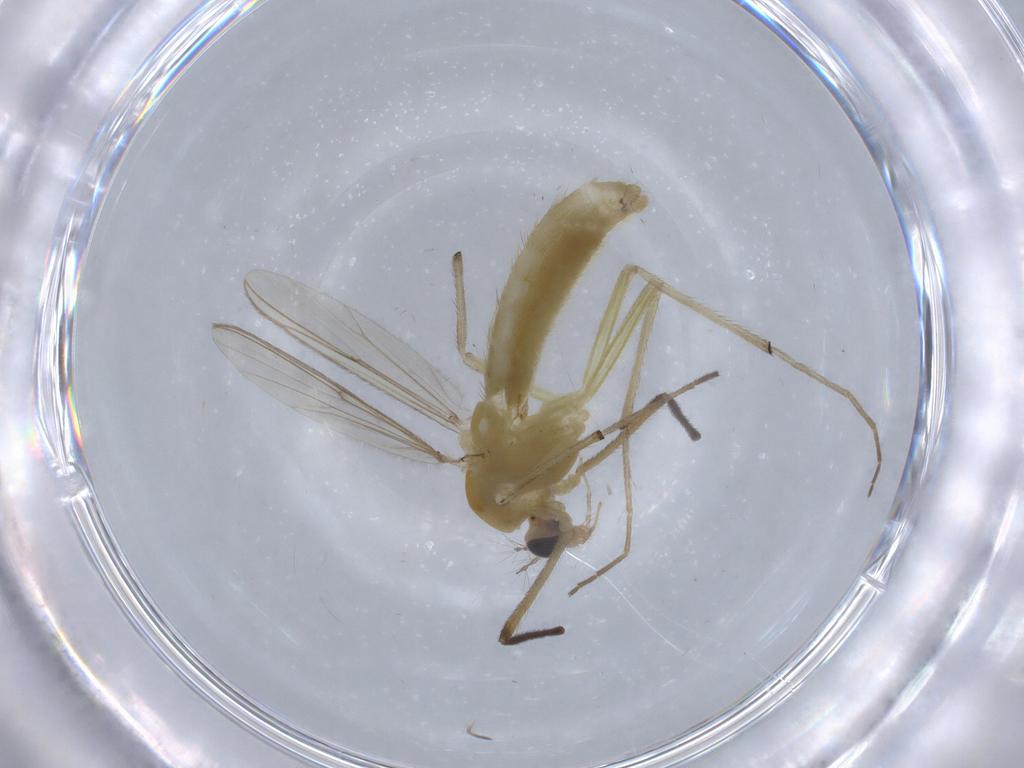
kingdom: Animalia
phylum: Arthropoda
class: Insecta
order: Diptera
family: Chironomidae
